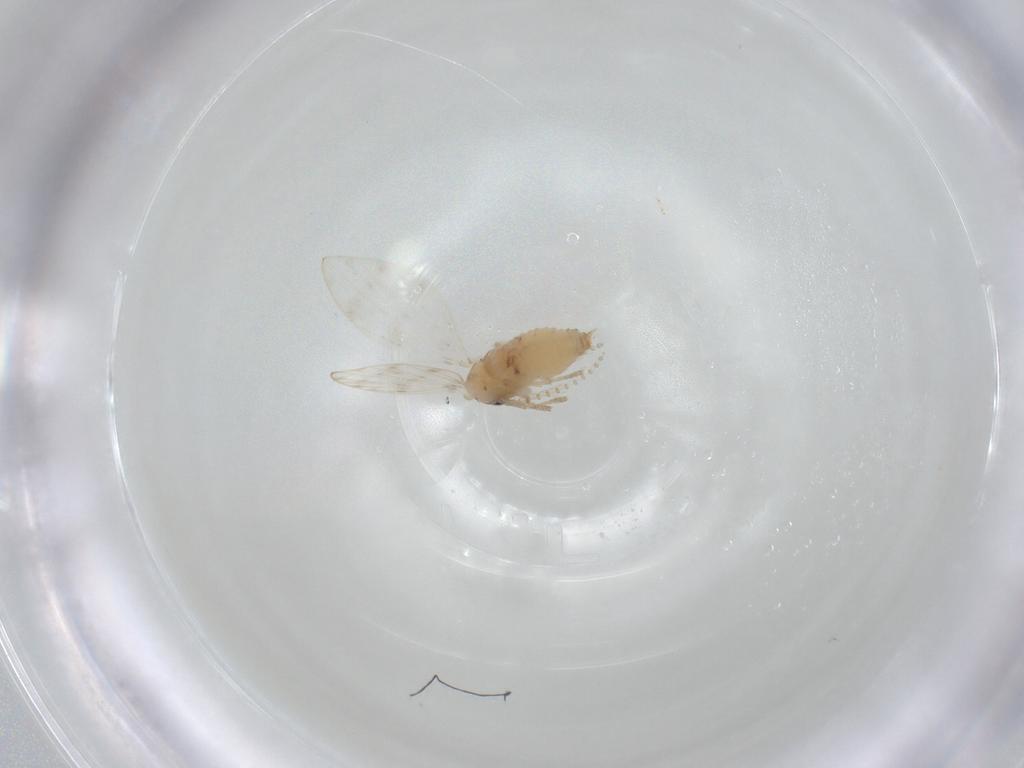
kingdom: Animalia
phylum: Arthropoda
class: Insecta
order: Diptera
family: Psychodidae
